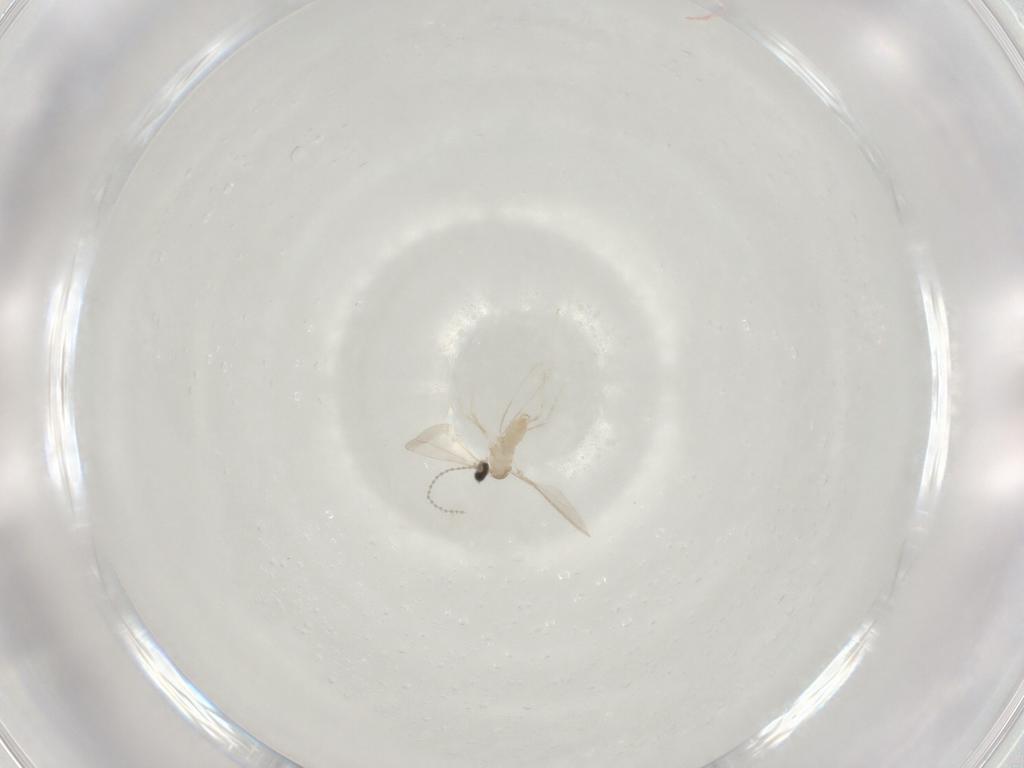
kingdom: Animalia
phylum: Arthropoda
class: Insecta
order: Diptera
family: Cecidomyiidae
